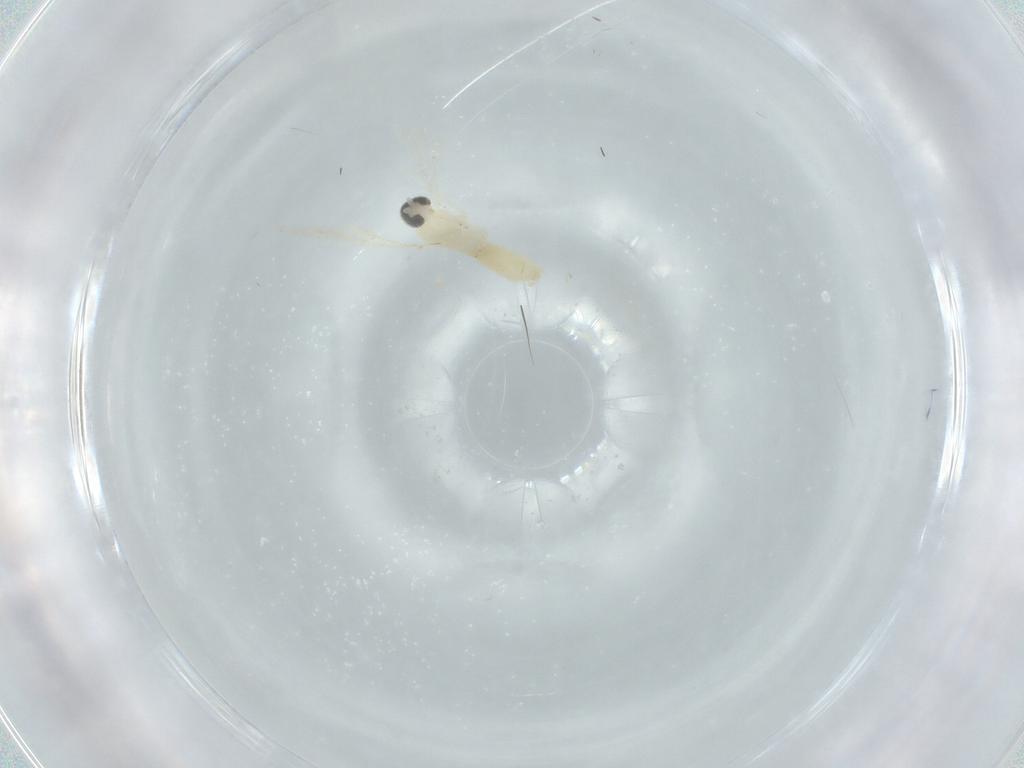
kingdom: Animalia
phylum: Arthropoda
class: Insecta
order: Diptera
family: Cecidomyiidae
